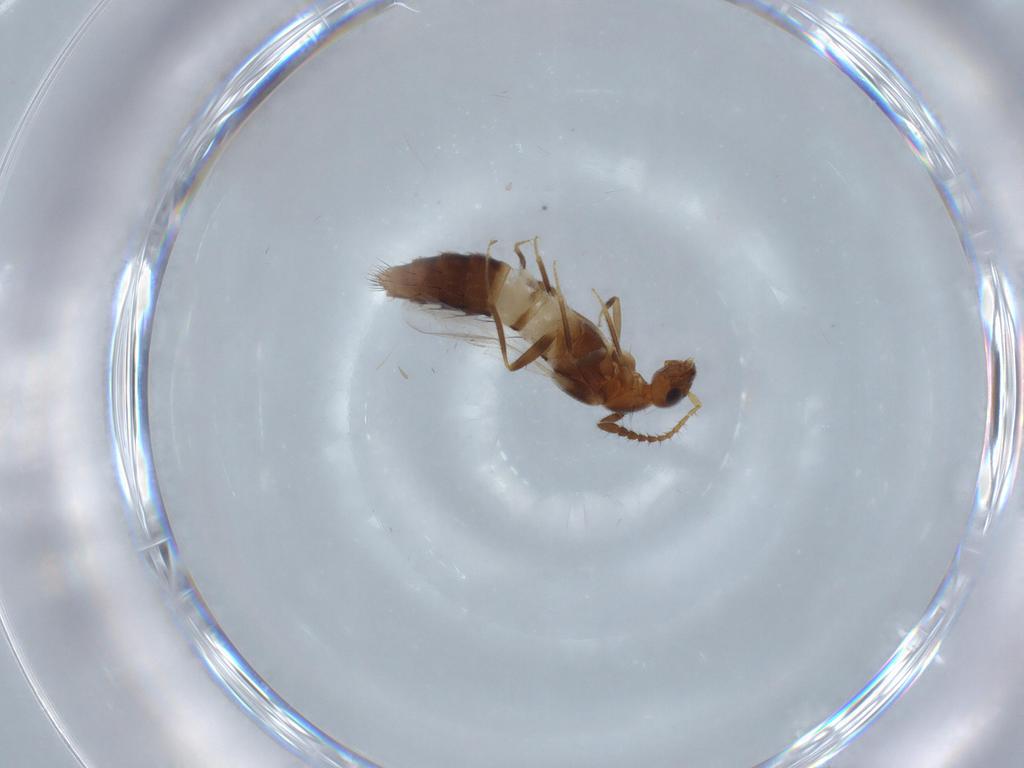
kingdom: Animalia
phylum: Arthropoda
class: Insecta
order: Coleoptera
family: Staphylinidae
